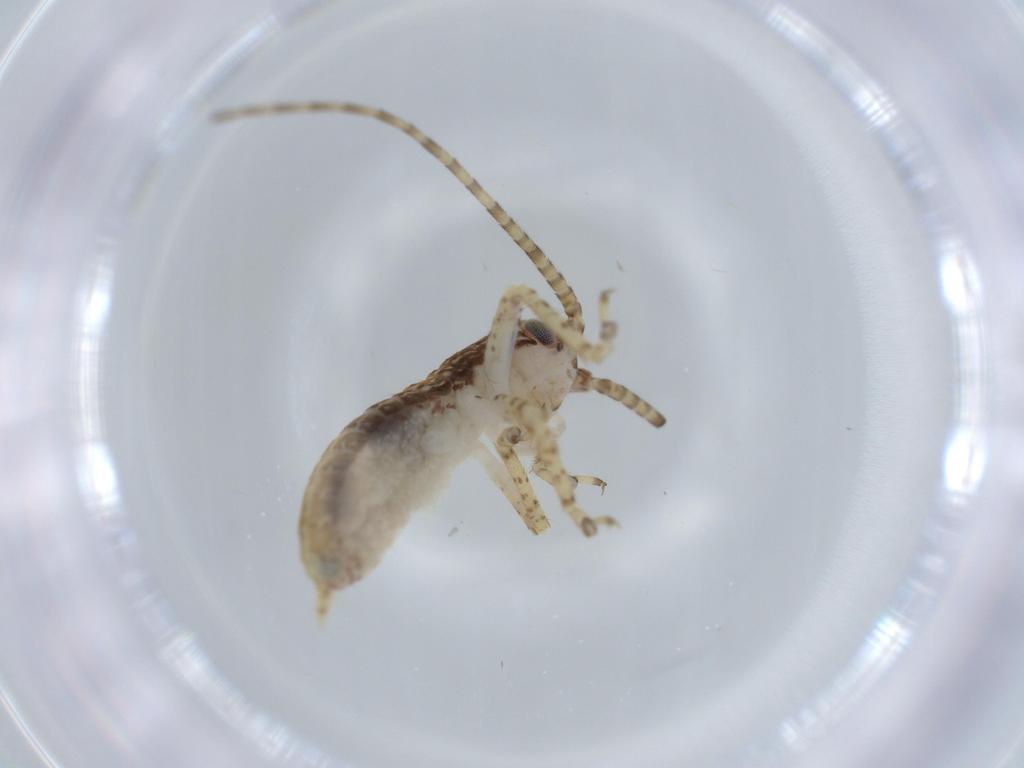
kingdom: Animalia
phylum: Arthropoda
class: Insecta
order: Orthoptera
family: Gryllidae
